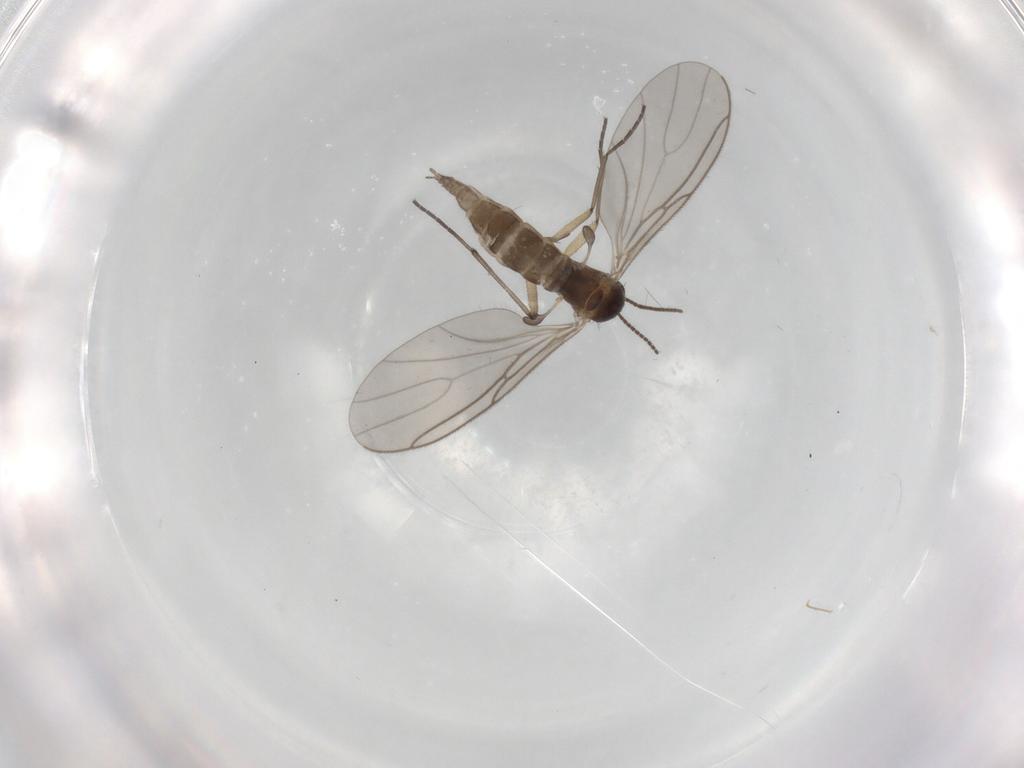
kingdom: Animalia
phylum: Arthropoda
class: Insecta
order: Diptera
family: Sciaridae
